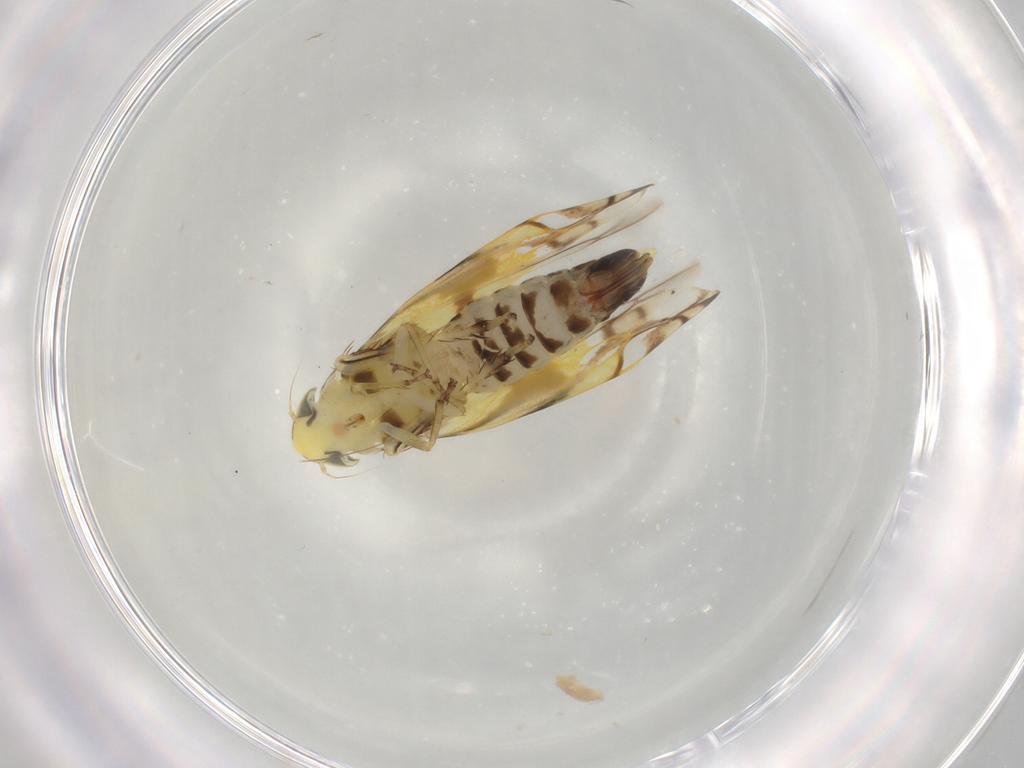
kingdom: Animalia
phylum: Arthropoda
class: Insecta
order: Hemiptera
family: Cicadellidae
